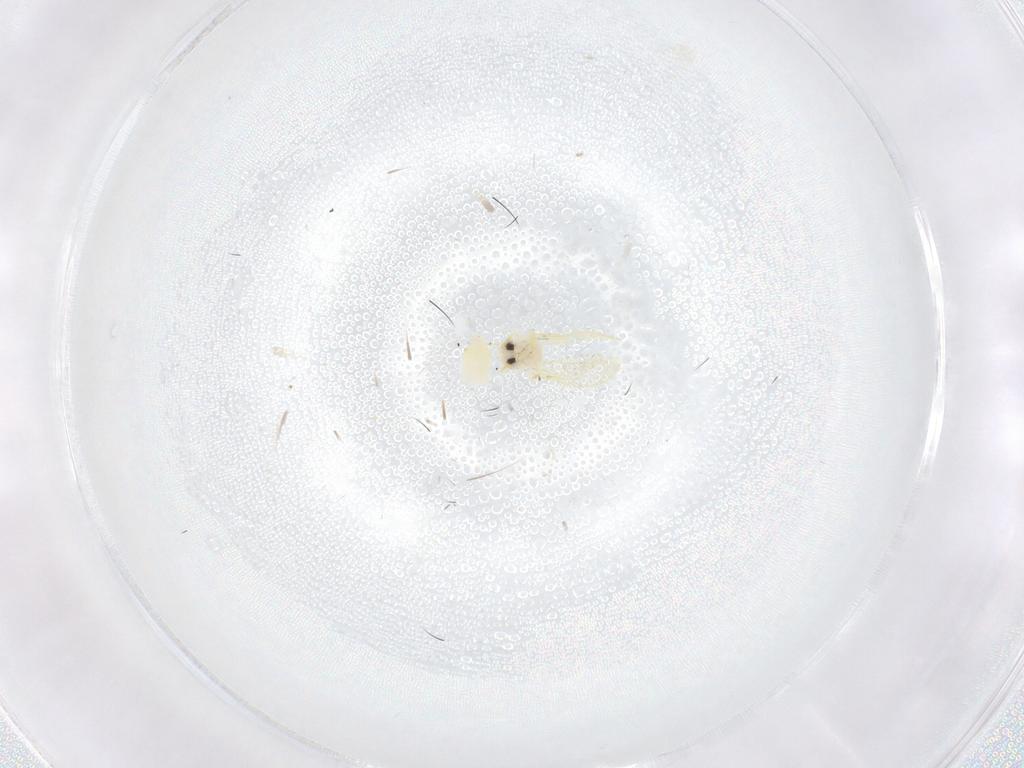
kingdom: Animalia
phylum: Arthropoda
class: Insecta
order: Hemiptera
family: Aleyrodidae
